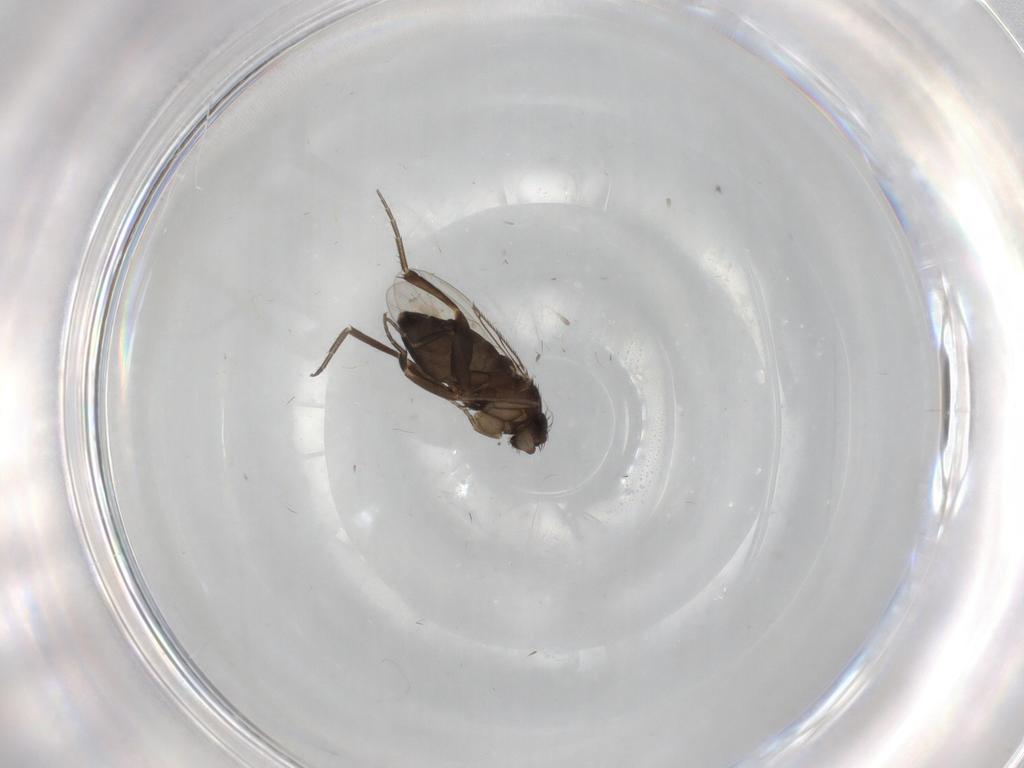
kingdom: Animalia
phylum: Arthropoda
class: Insecta
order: Diptera
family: Phoridae
